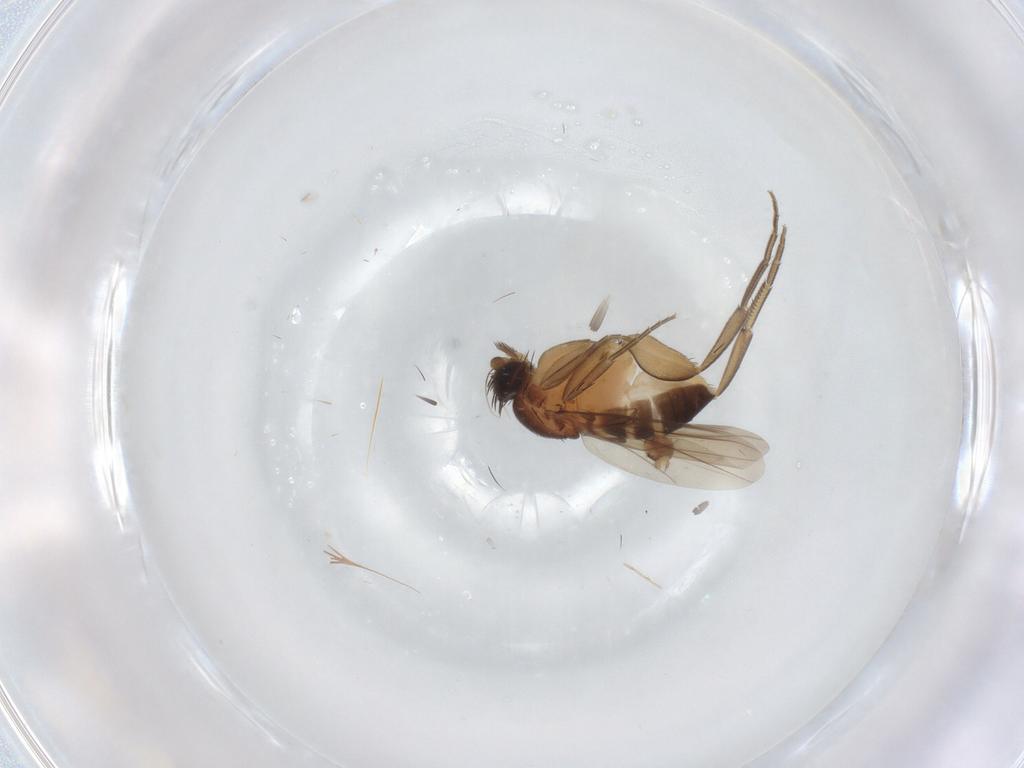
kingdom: Animalia
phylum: Arthropoda
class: Insecta
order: Diptera
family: Phoridae
